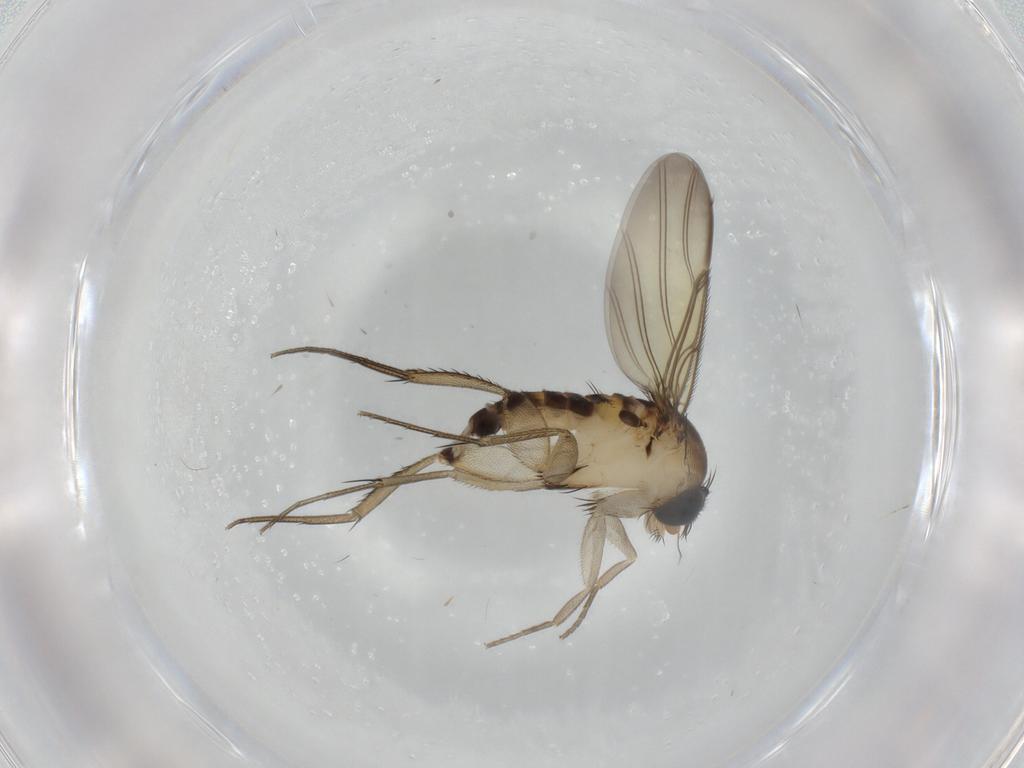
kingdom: Animalia
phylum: Arthropoda
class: Insecta
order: Diptera
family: Phoridae
